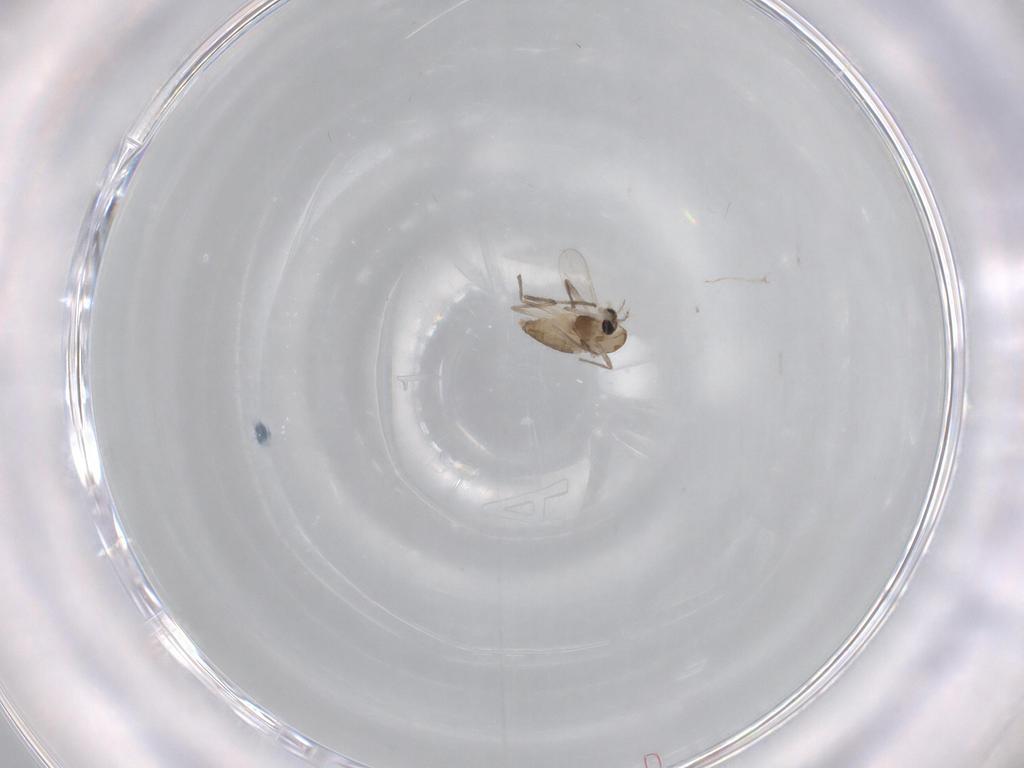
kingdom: Animalia
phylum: Arthropoda
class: Insecta
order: Diptera
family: Chironomidae
